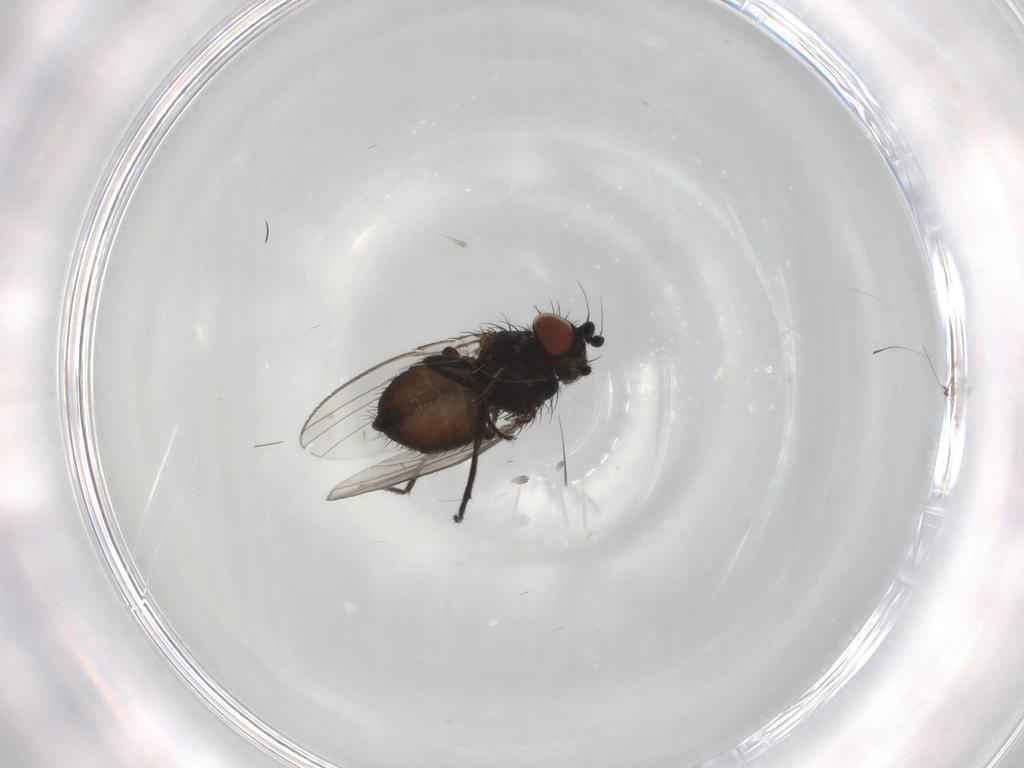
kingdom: Animalia
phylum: Arthropoda
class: Insecta
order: Diptera
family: Milichiidae
